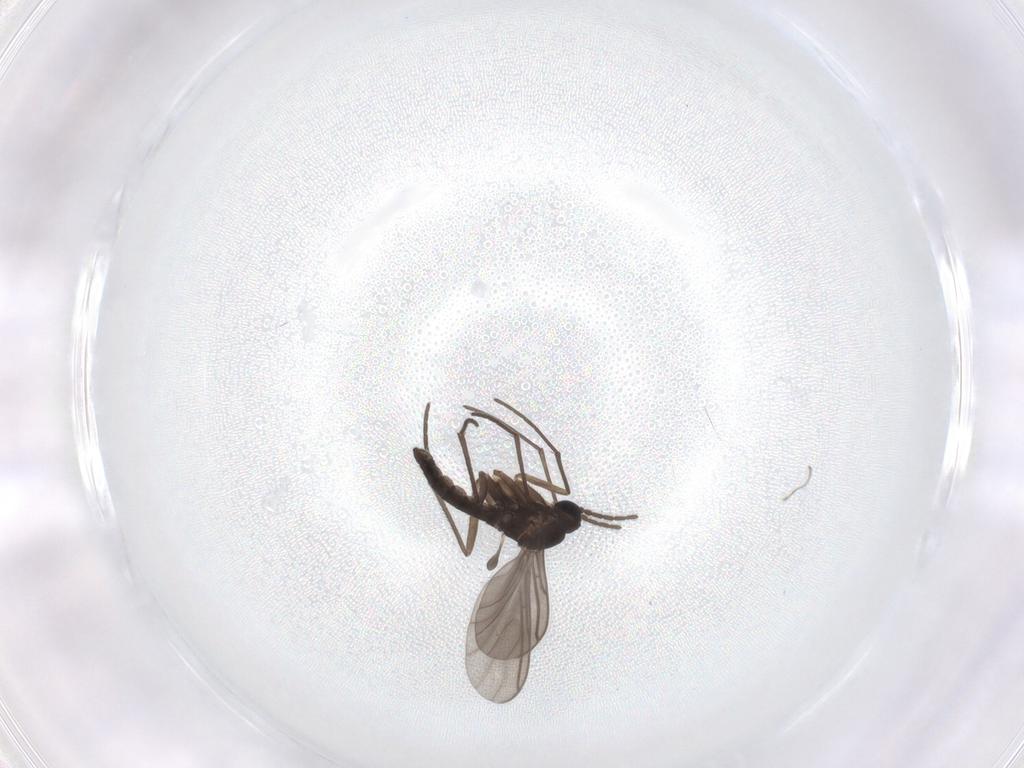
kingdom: Animalia
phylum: Arthropoda
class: Insecta
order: Diptera
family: Sciaridae
